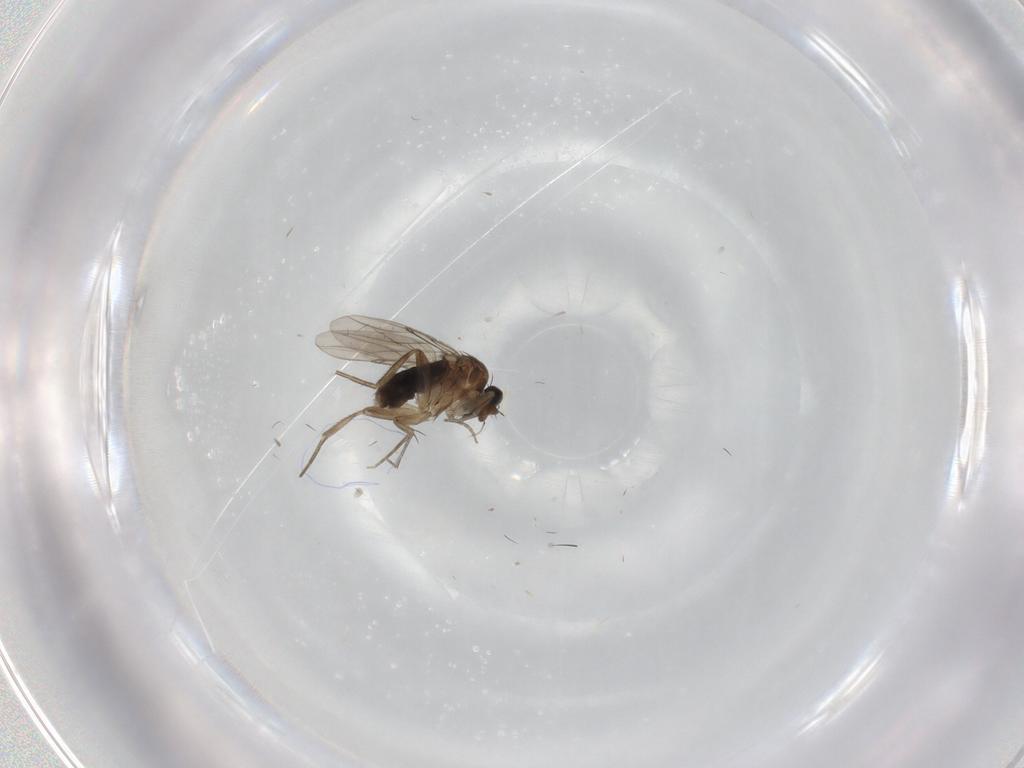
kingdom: Animalia
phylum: Arthropoda
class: Insecta
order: Diptera
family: Phoridae
